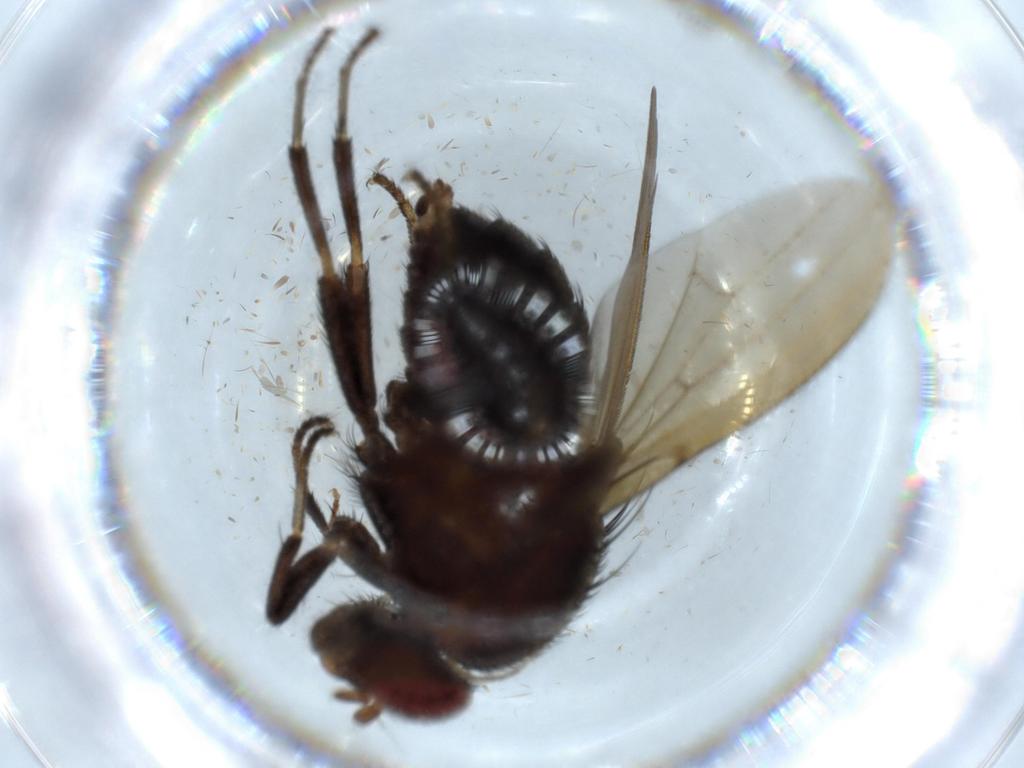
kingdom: Animalia
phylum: Arthropoda
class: Insecta
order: Diptera
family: Cecidomyiidae
